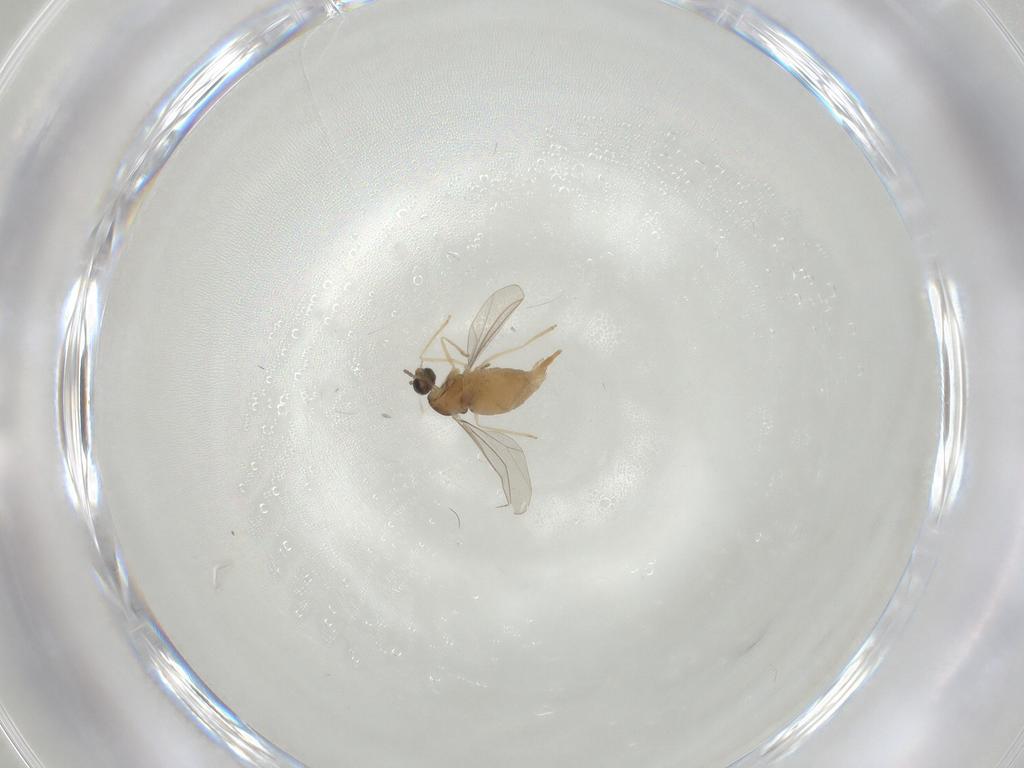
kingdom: Animalia
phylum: Arthropoda
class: Insecta
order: Diptera
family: Cecidomyiidae
